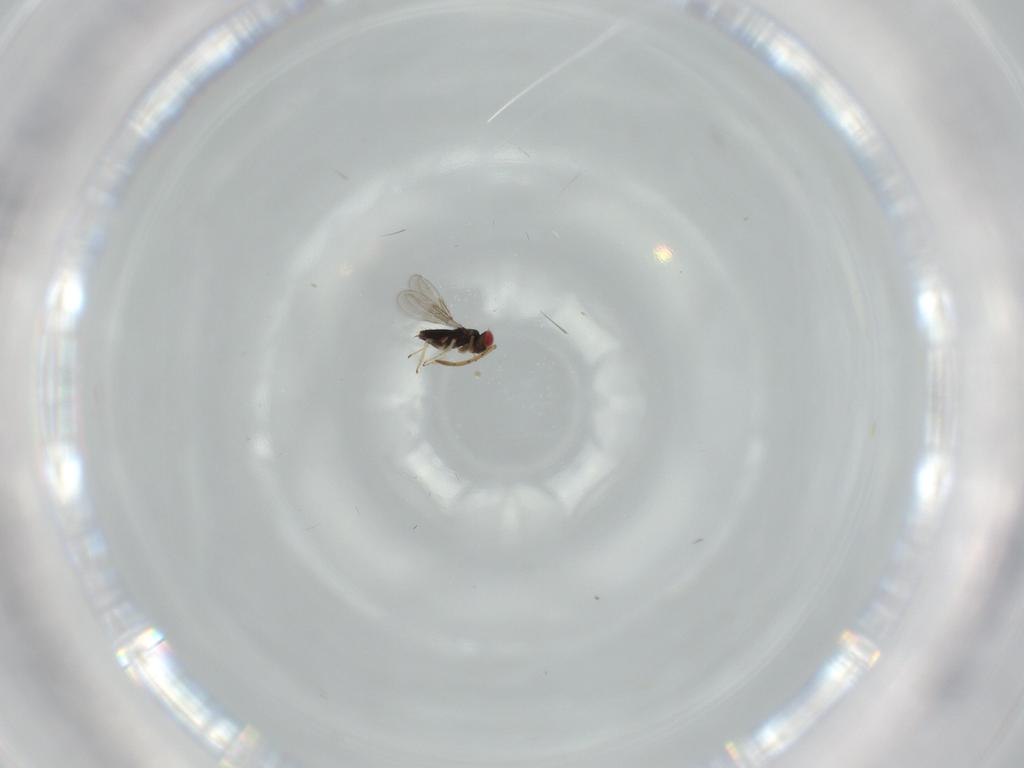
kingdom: Animalia
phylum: Arthropoda
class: Insecta
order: Hymenoptera
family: Azotidae
